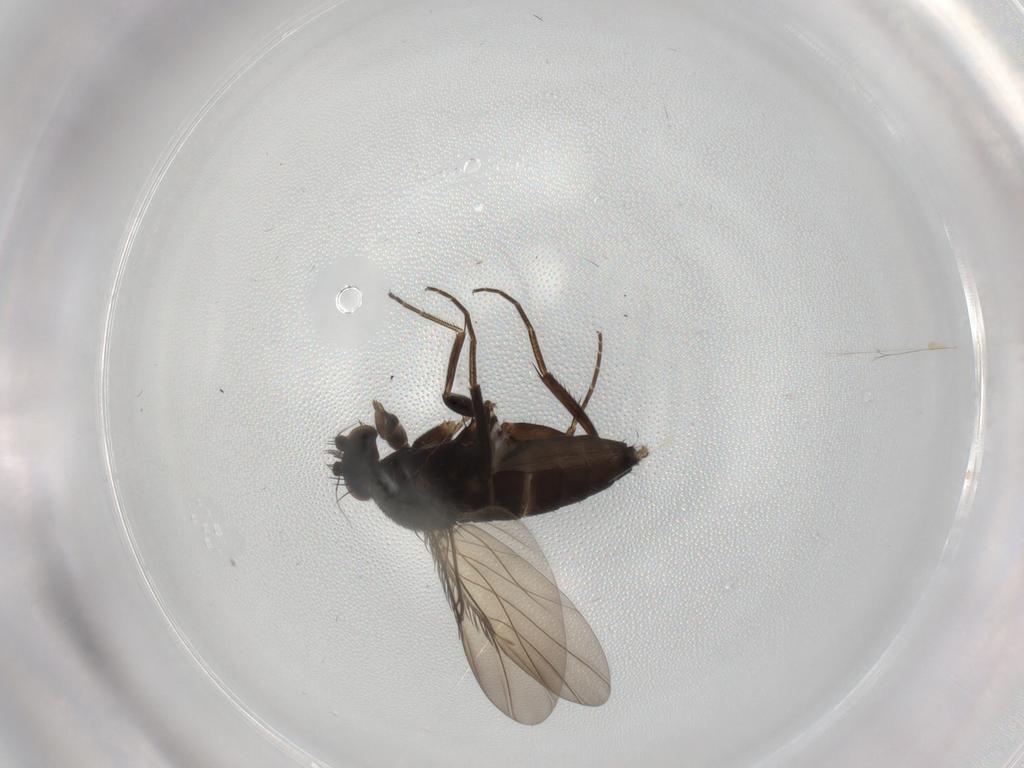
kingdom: Animalia
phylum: Arthropoda
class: Insecta
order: Diptera
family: Phoridae
